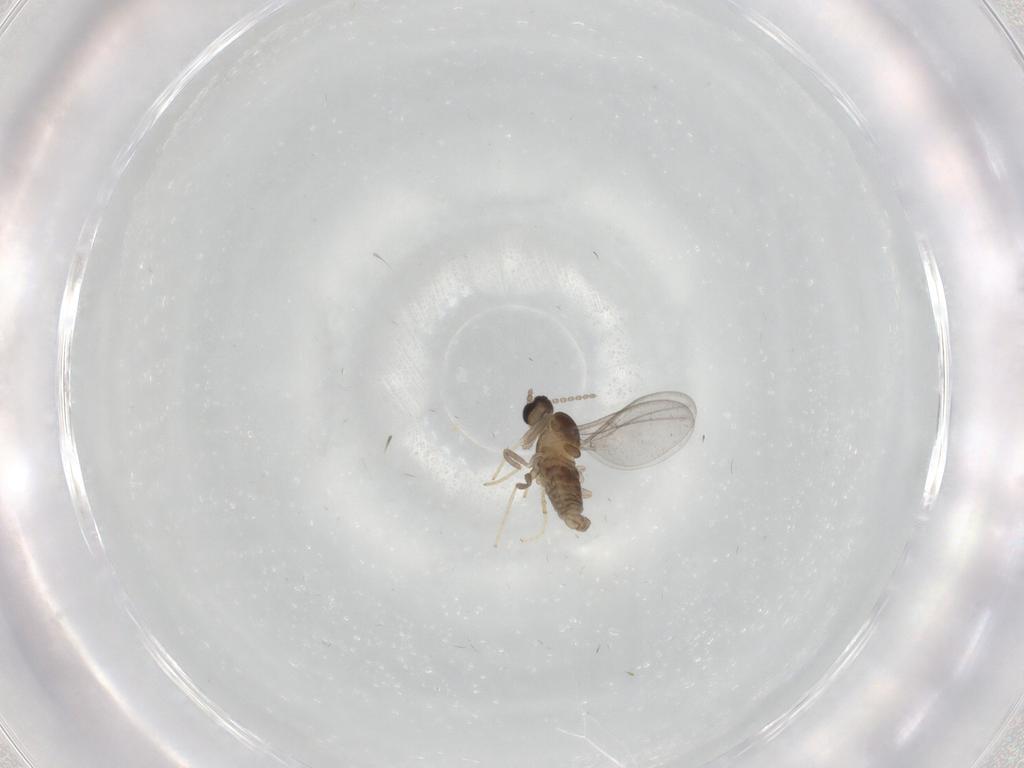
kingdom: Animalia
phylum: Arthropoda
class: Insecta
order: Diptera
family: Cecidomyiidae
